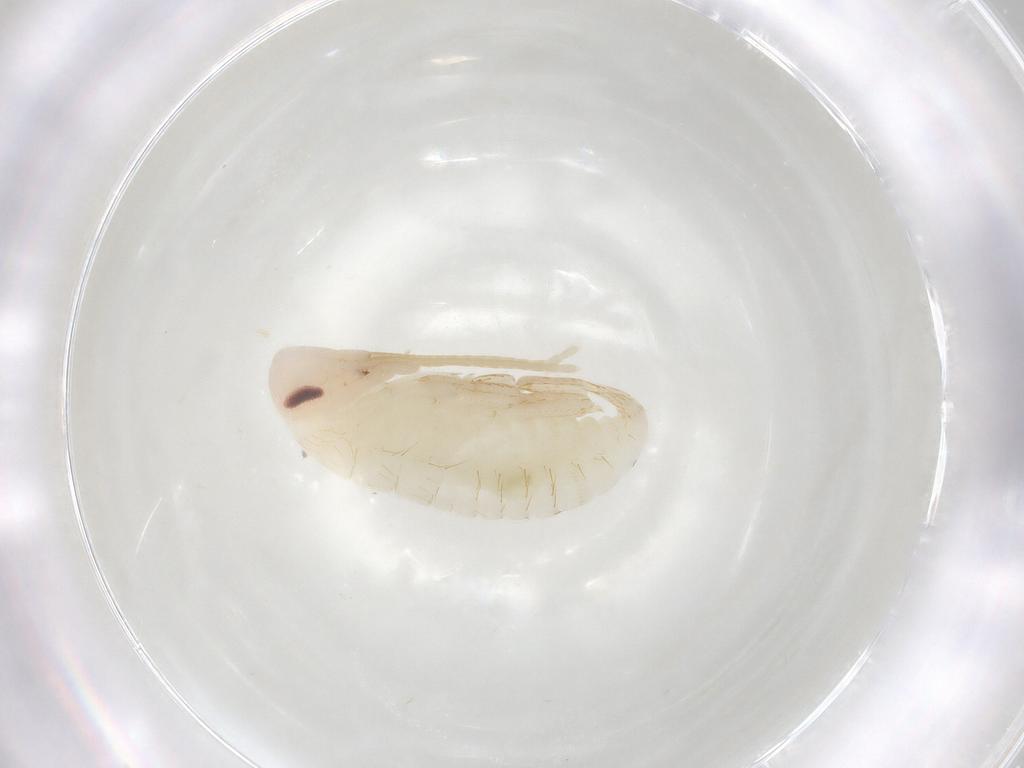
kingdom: Animalia
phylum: Arthropoda
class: Insecta
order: Blattodea
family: Ectobiidae
